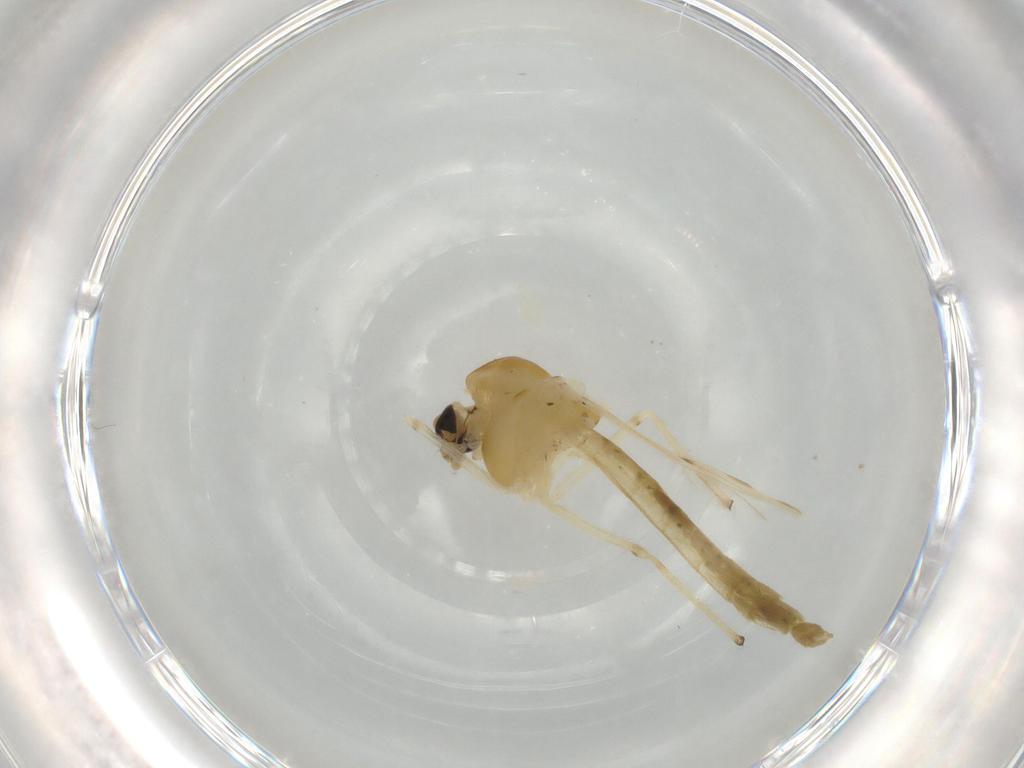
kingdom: Animalia
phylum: Arthropoda
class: Insecta
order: Diptera
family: Chironomidae
